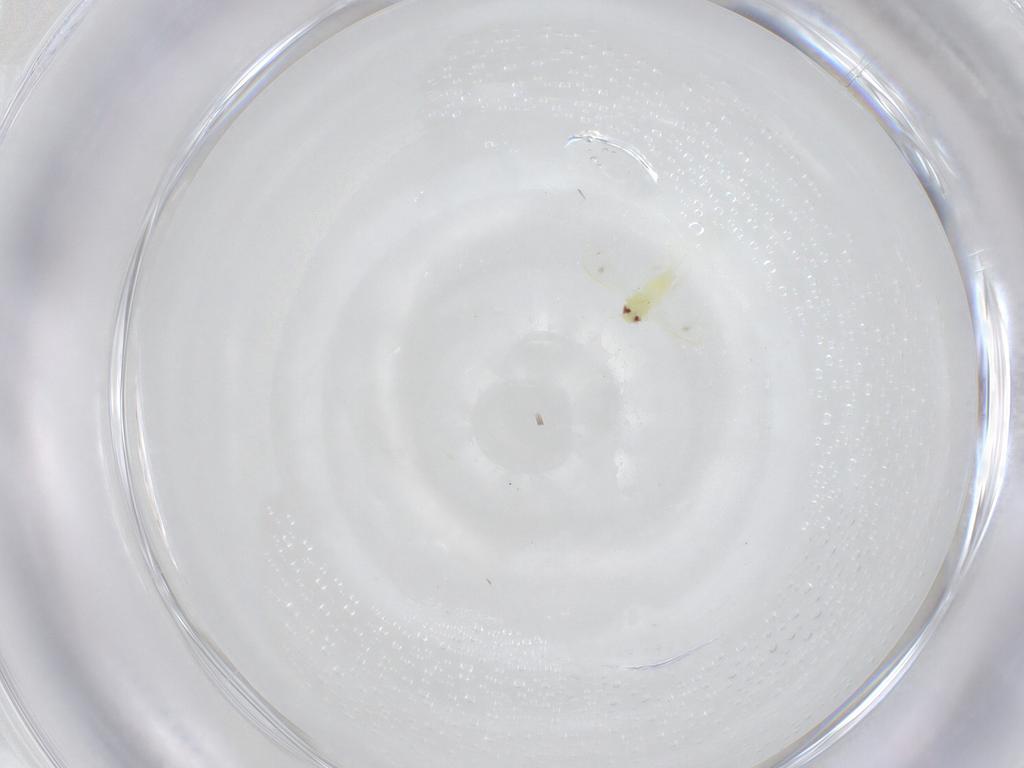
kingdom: Animalia
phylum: Arthropoda
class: Insecta
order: Hemiptera
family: Aleyrodidae
